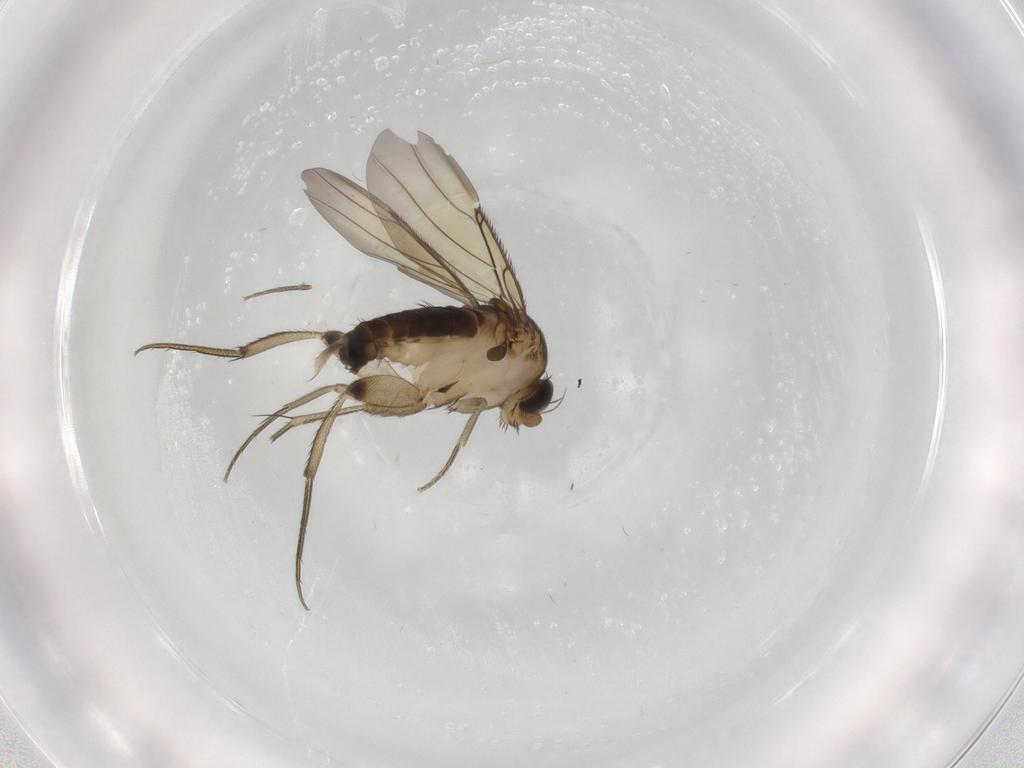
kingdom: Animalia
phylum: Arthropoda
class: Insecta
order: Diptera
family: Phoridae
